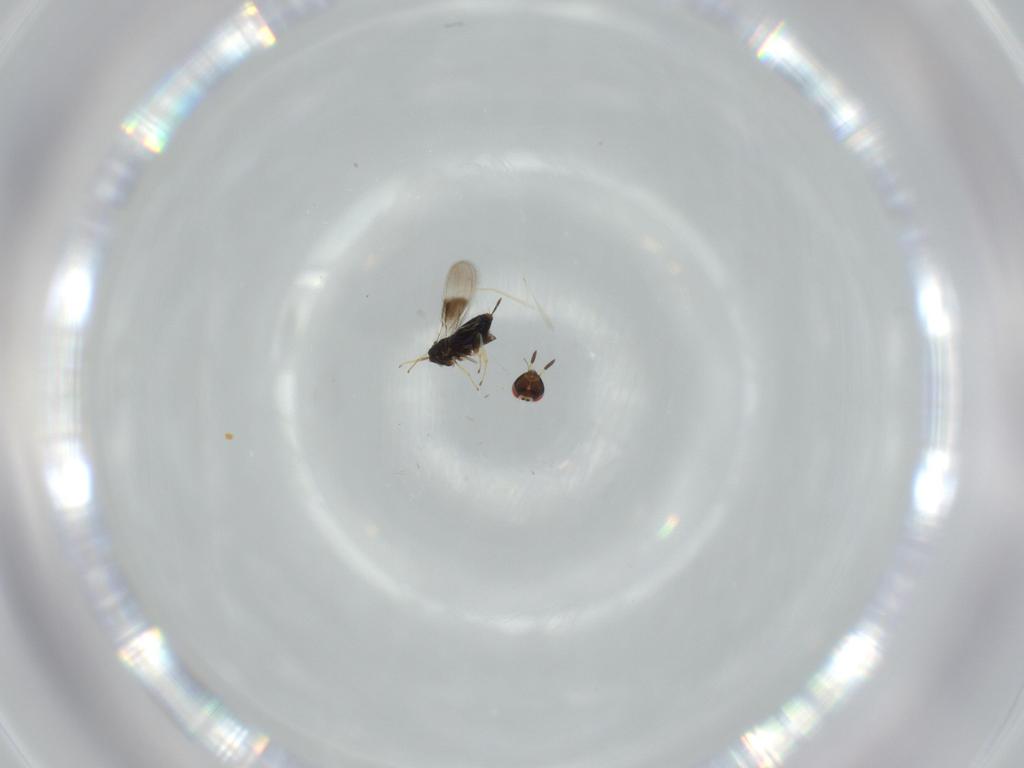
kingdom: Animalia
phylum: Arthropoda
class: Insecta
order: Hymenoptera
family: Azotidae
